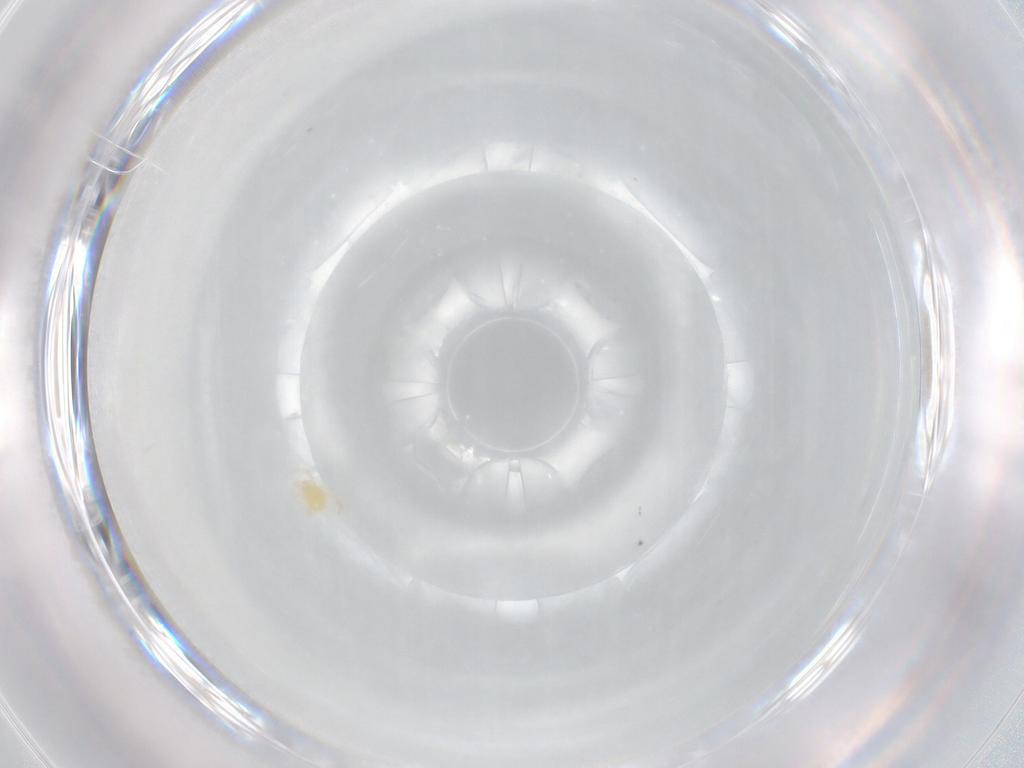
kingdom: Animalia
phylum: Arthropoda
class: Arachnida
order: Trombidiformes
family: Hydryphantidae
